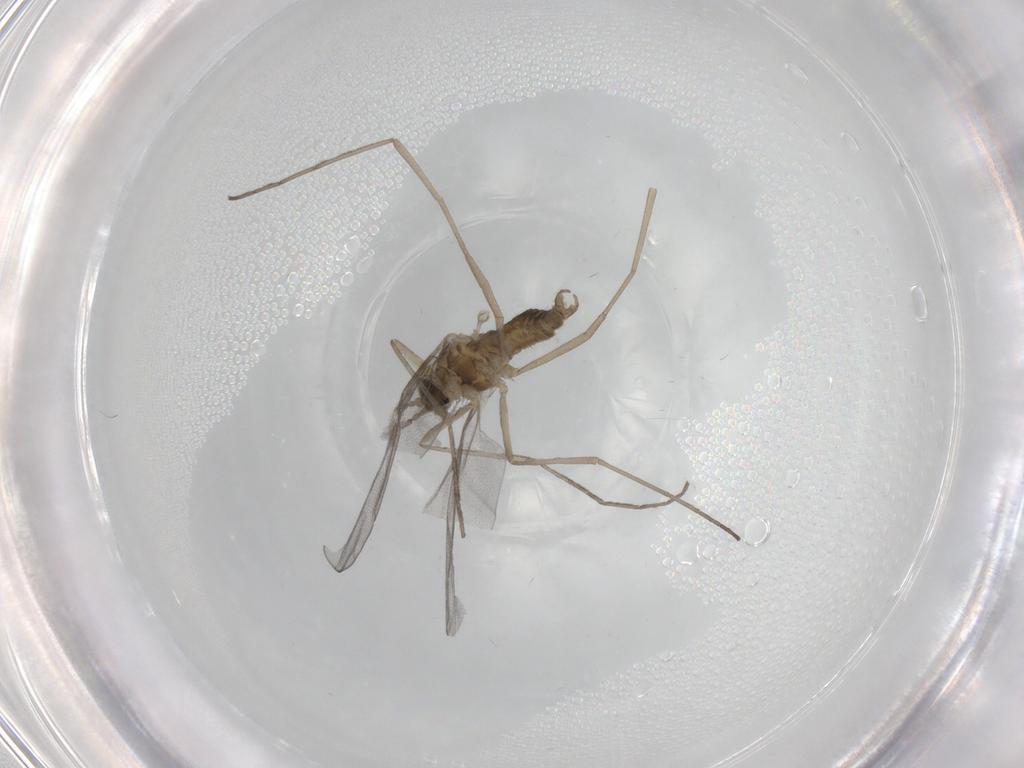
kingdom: Animalia
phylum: Arthropoda
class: Insecta
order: Diptera
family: Cecidomyiidae
